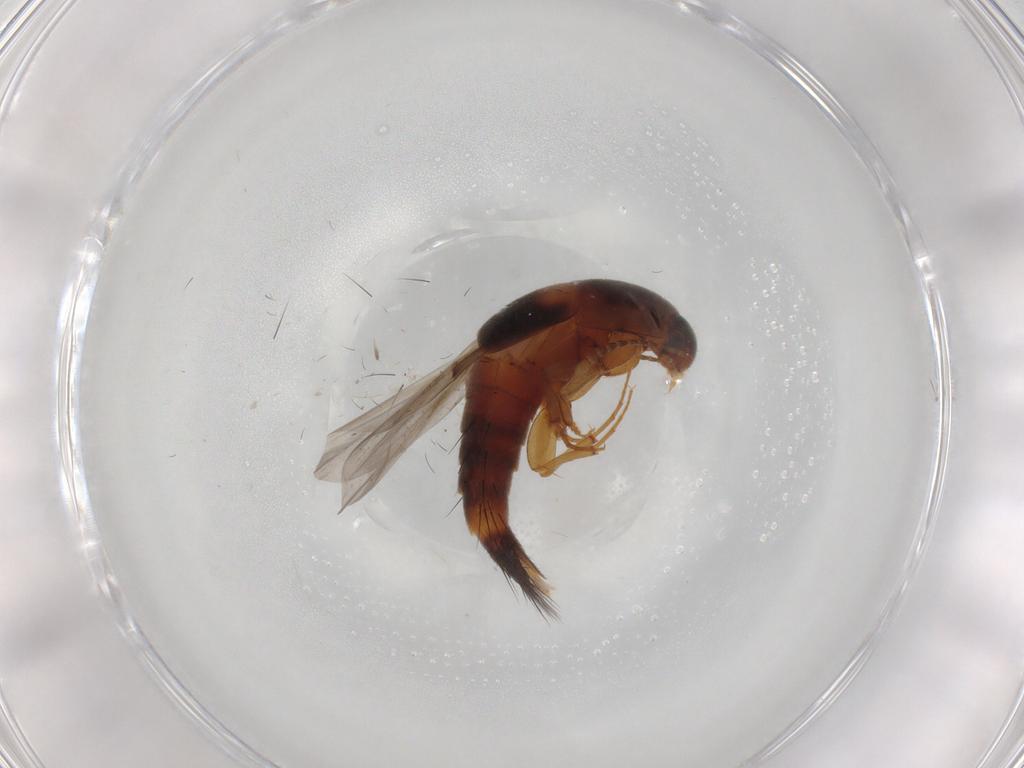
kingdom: Animalia
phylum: Arthropoda
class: Insecta
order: Coleoptera
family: Staphylinidae
